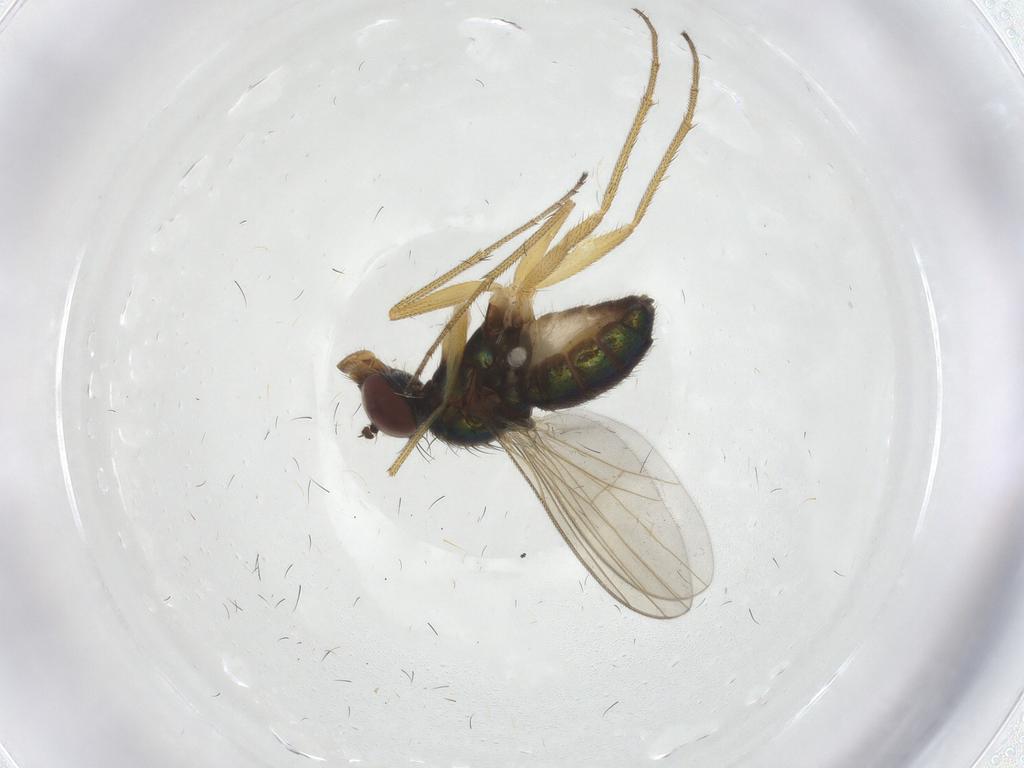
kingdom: Animalia
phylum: Arthropoda
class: Insecta
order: Diptera
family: Dolichopodidae
